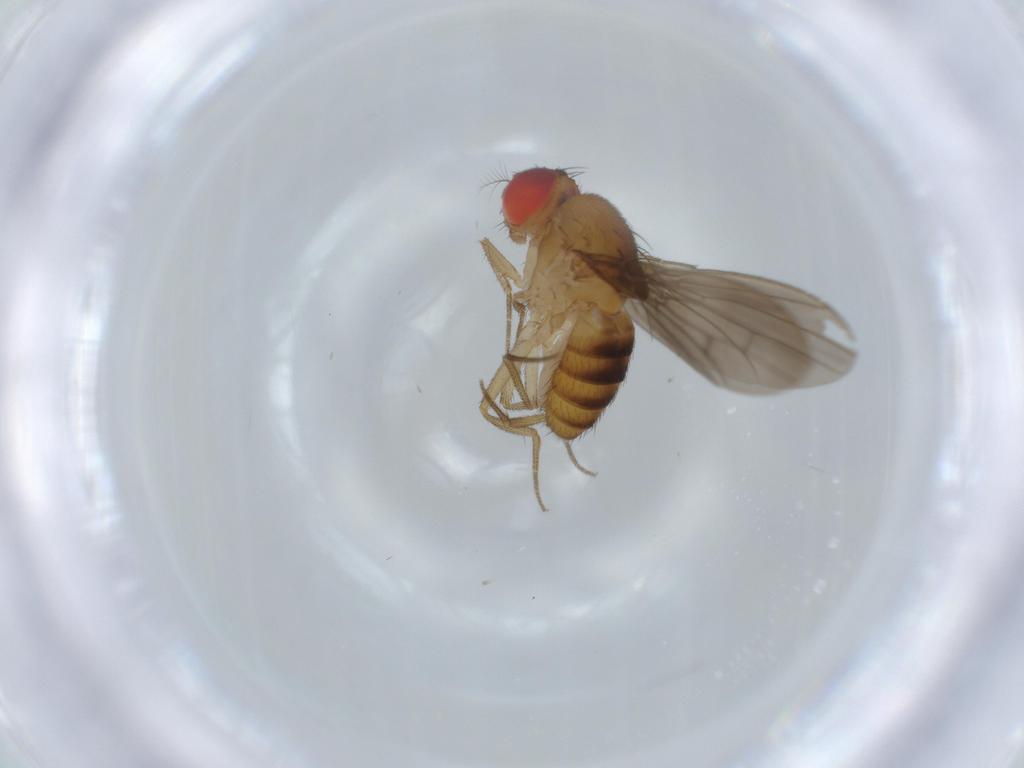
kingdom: Animalia
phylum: Arthropoda
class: Insecta
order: Diptera
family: Drosophilidae
